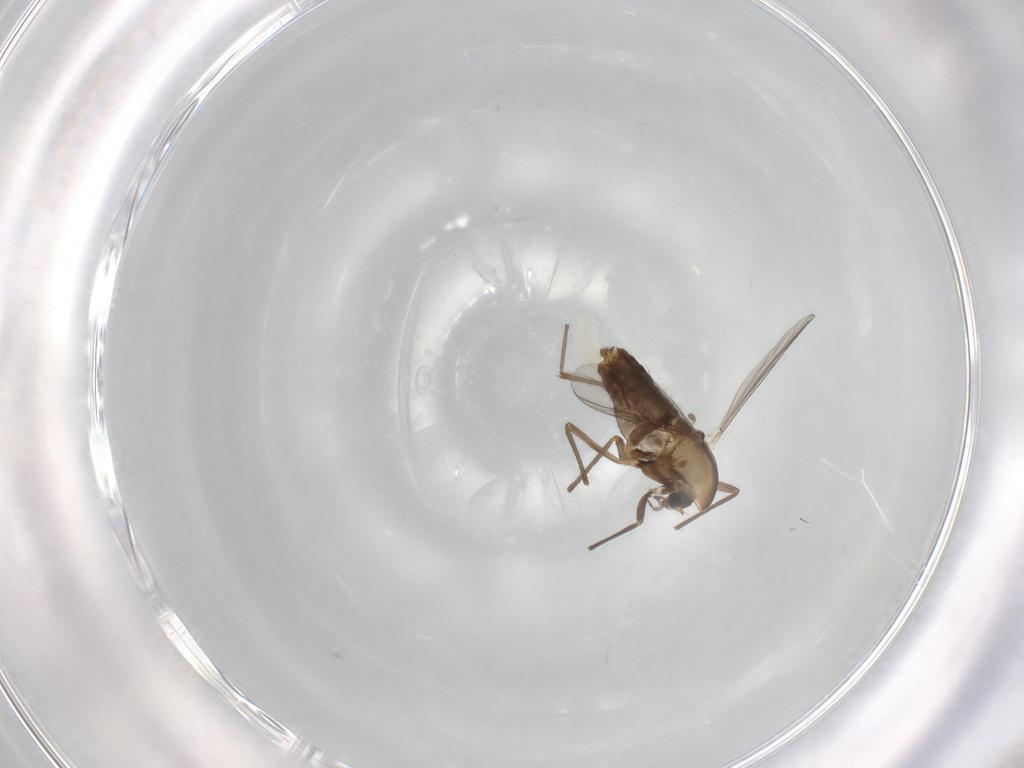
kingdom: Animalia
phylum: Arthropoda
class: Insecta
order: Diptera
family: Chironomidae
